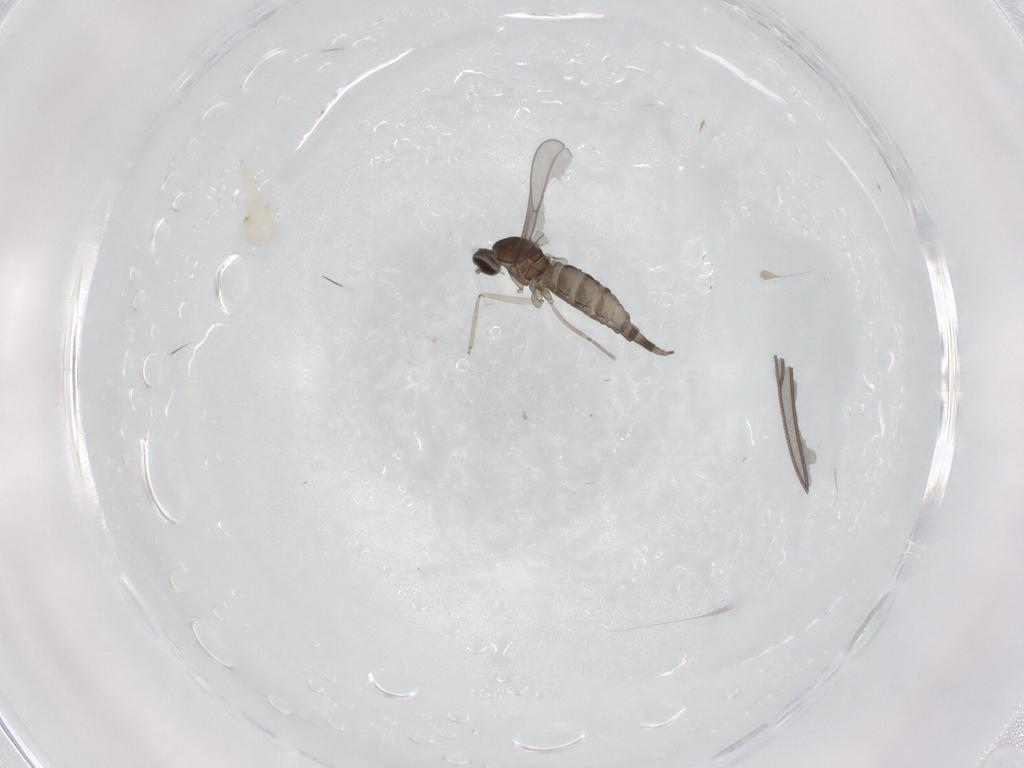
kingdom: Animalia
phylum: Arthropoda
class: Insecta
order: Diptera
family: Cecidomyiidae
